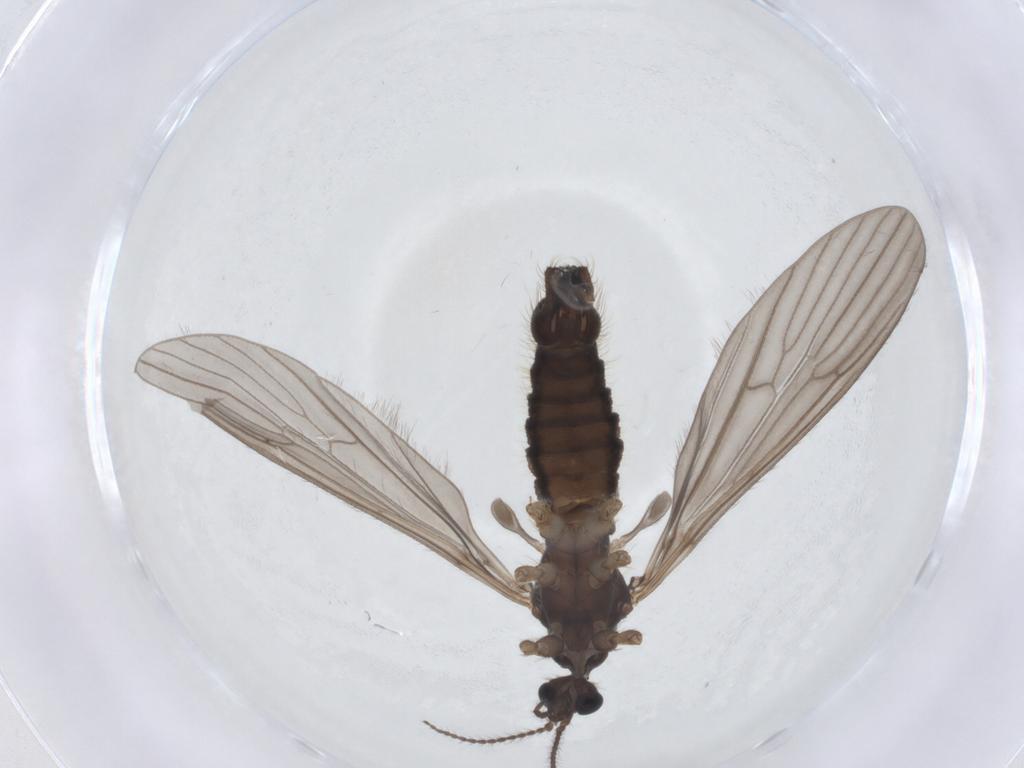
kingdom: Animalia
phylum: Arthropoda
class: Insecta
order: Diptera
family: Limoniidae
